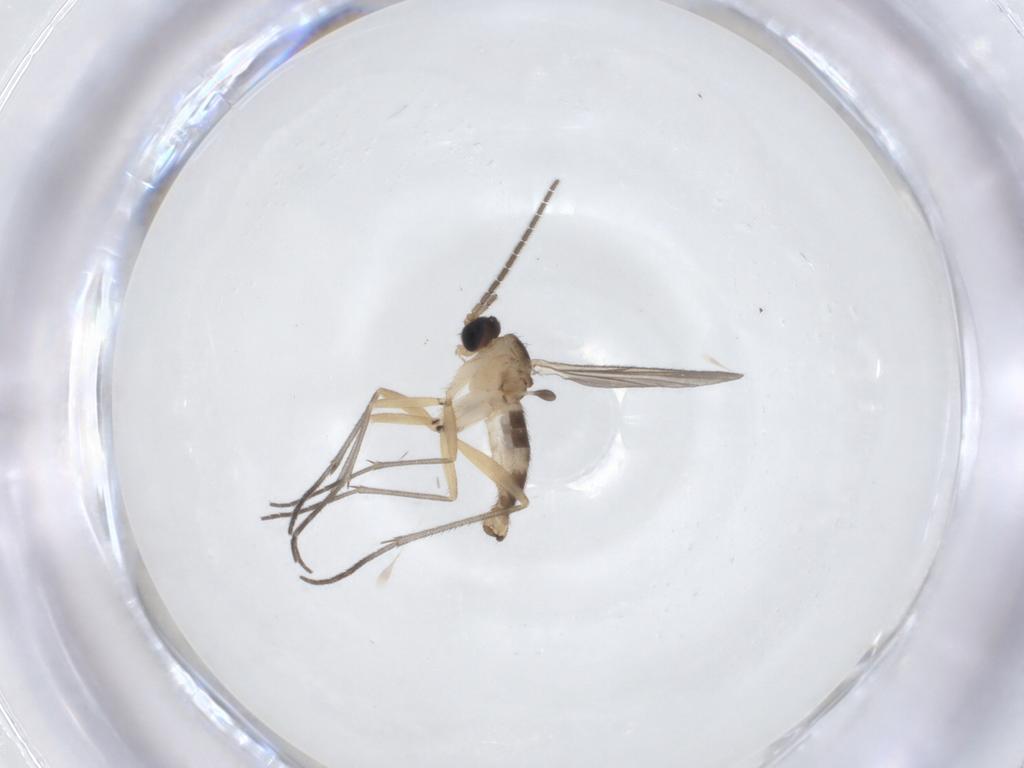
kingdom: Animalia
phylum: Arthropoda
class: Insecta
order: Diptera
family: Sciaridae
